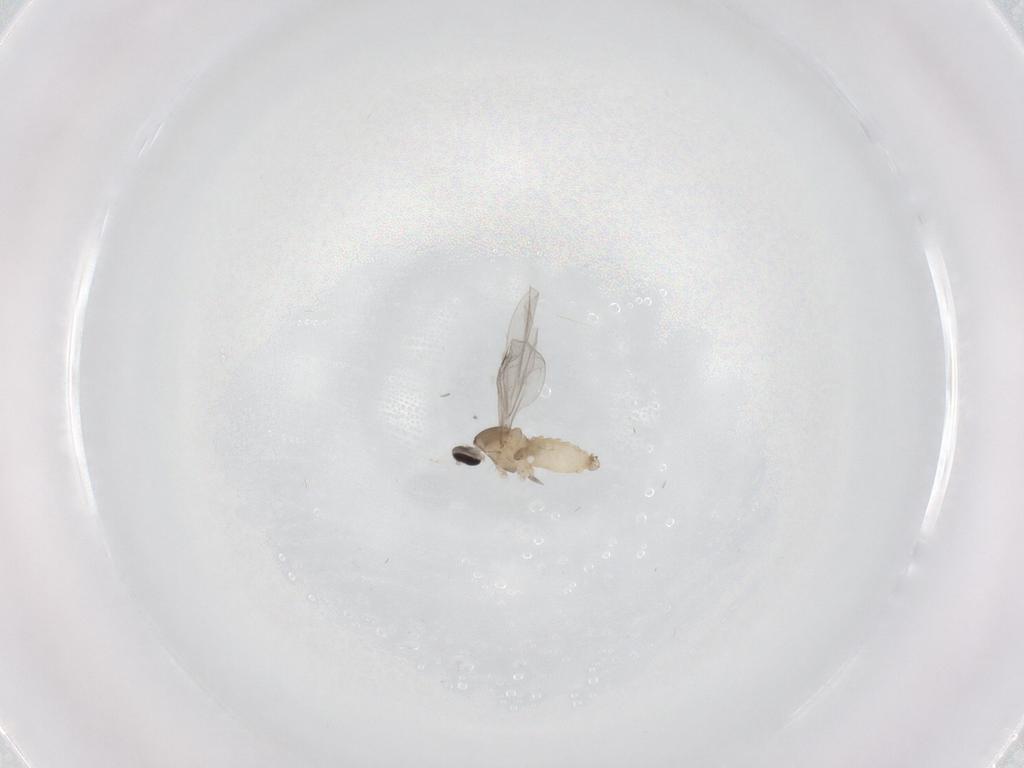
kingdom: Animalia
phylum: Arthropoda
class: Insecta
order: Diptera
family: Cecidomyiidae
